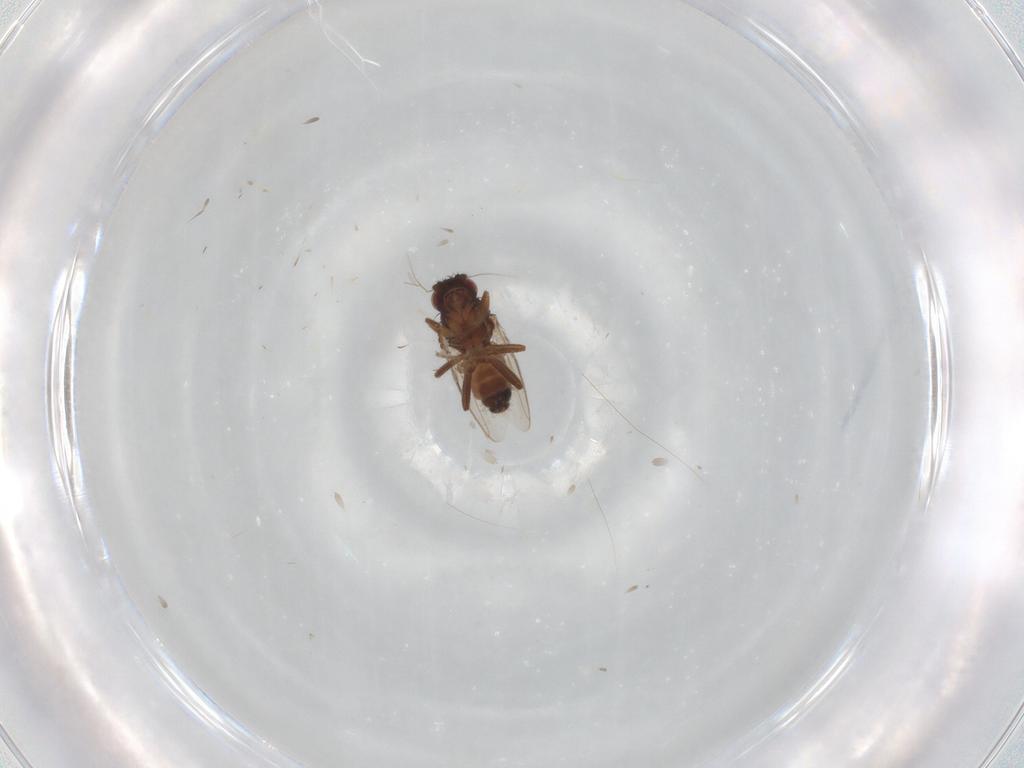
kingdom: Animalia
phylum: Arthropoda
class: Insecta
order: Diptera
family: Sphaeroceridae
